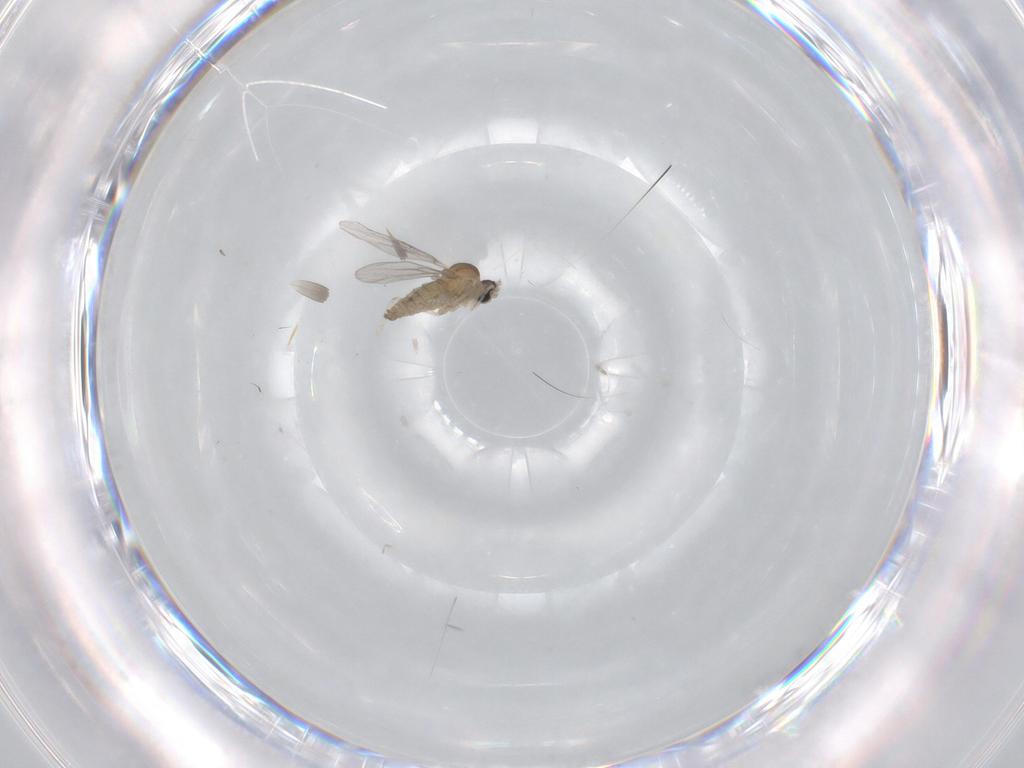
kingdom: Animalia
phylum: Arthropoda
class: Insecta
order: Diptera
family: Cecidomyiidae
